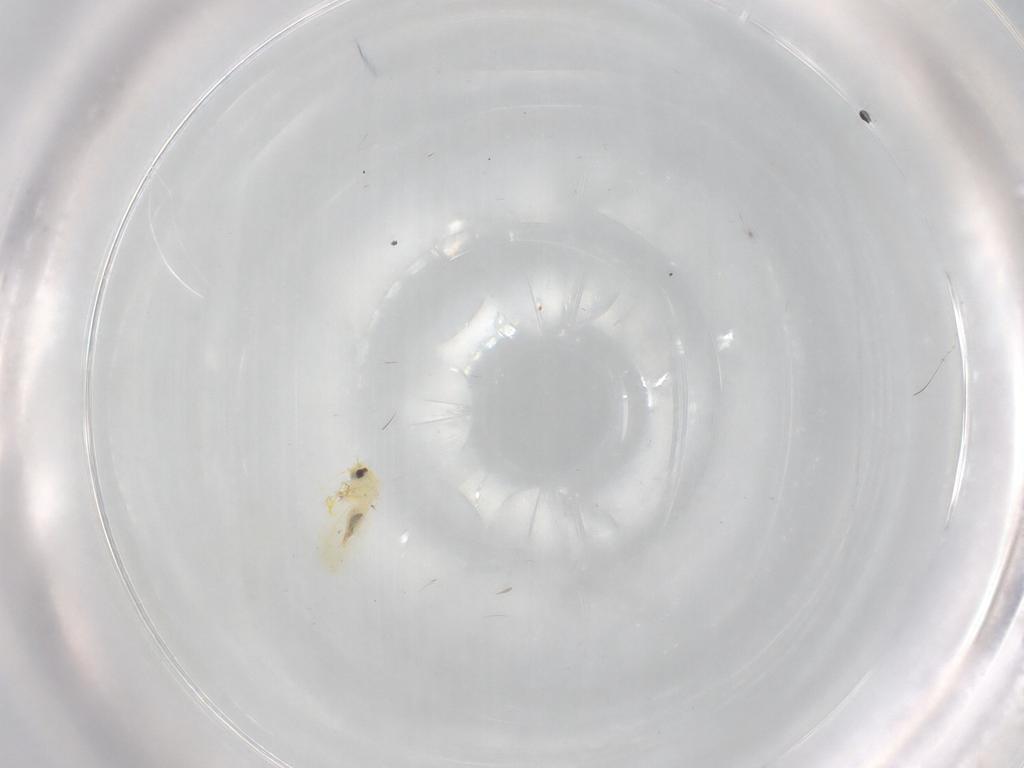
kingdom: Animalia
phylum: Arthropoda
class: Insecta
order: Hemiptera
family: Aleyrodidae
